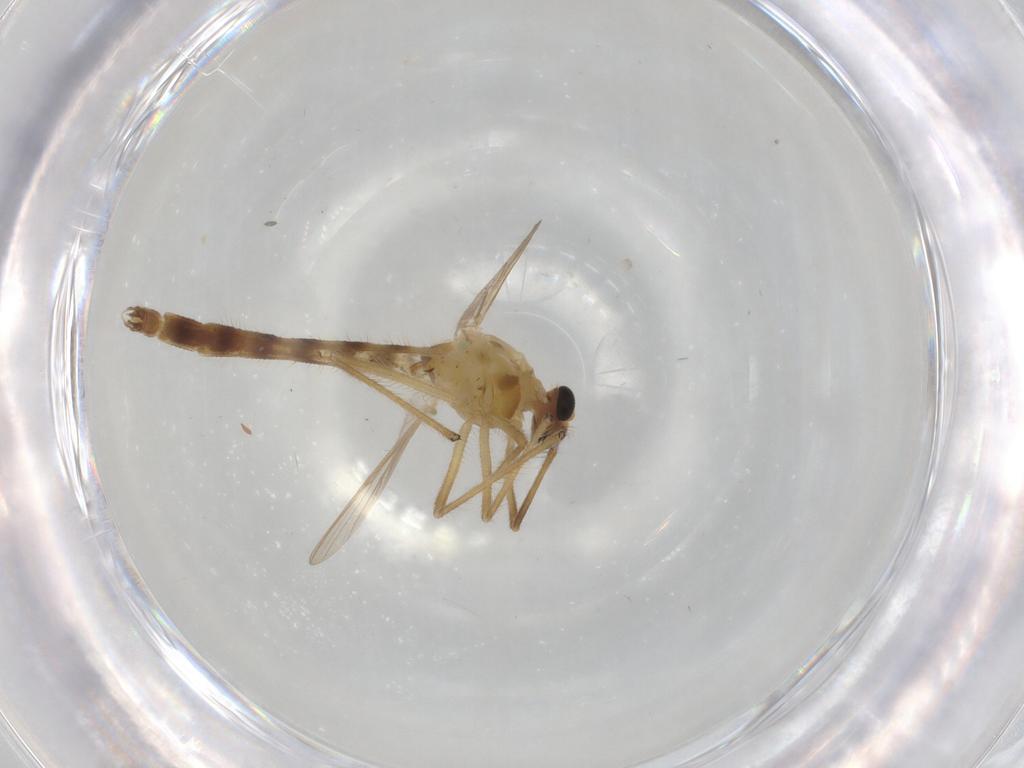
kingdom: Animalia
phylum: Arthropoda
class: Insecta
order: Diptera
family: Chironomidae
